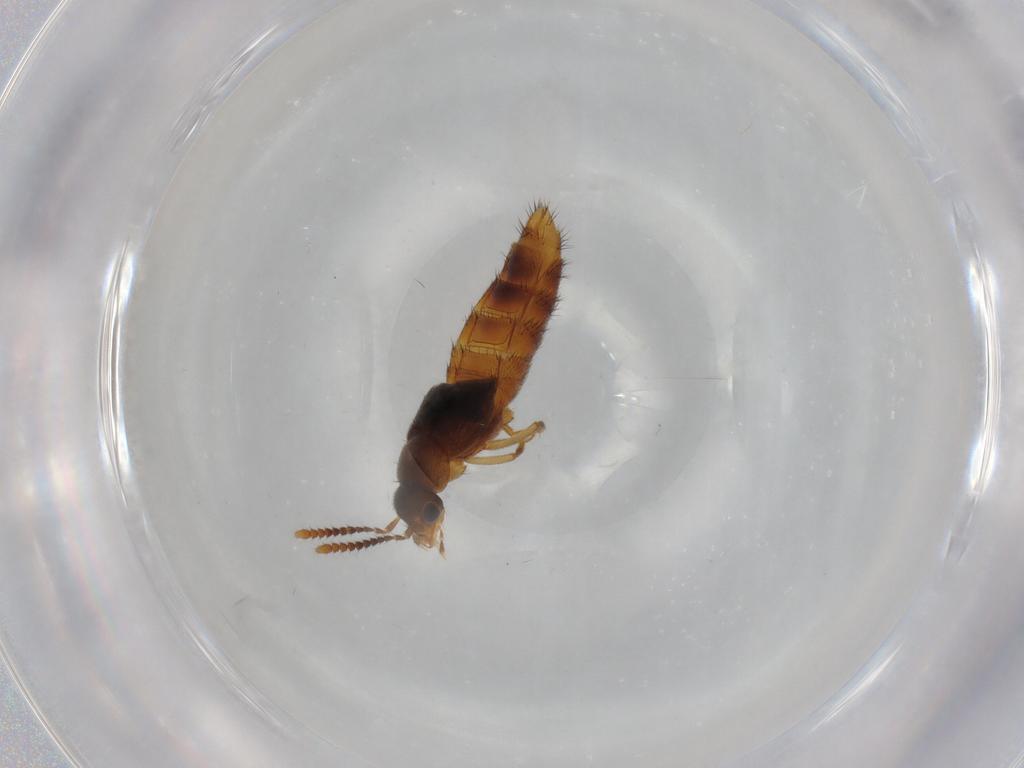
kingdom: Animalia
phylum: Arthropoda
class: Insecta
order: Coleoptera
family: Staphylinidae
